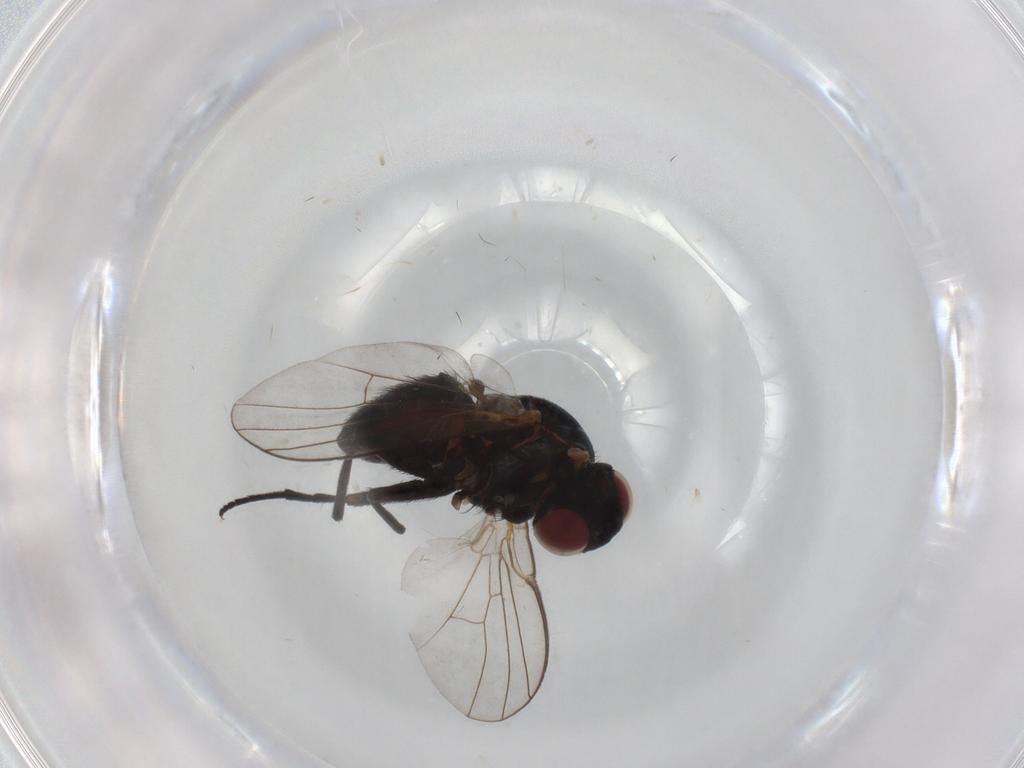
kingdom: Animalia
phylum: Arthropoda
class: Insecta
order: Diptera
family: Agromyzidae
